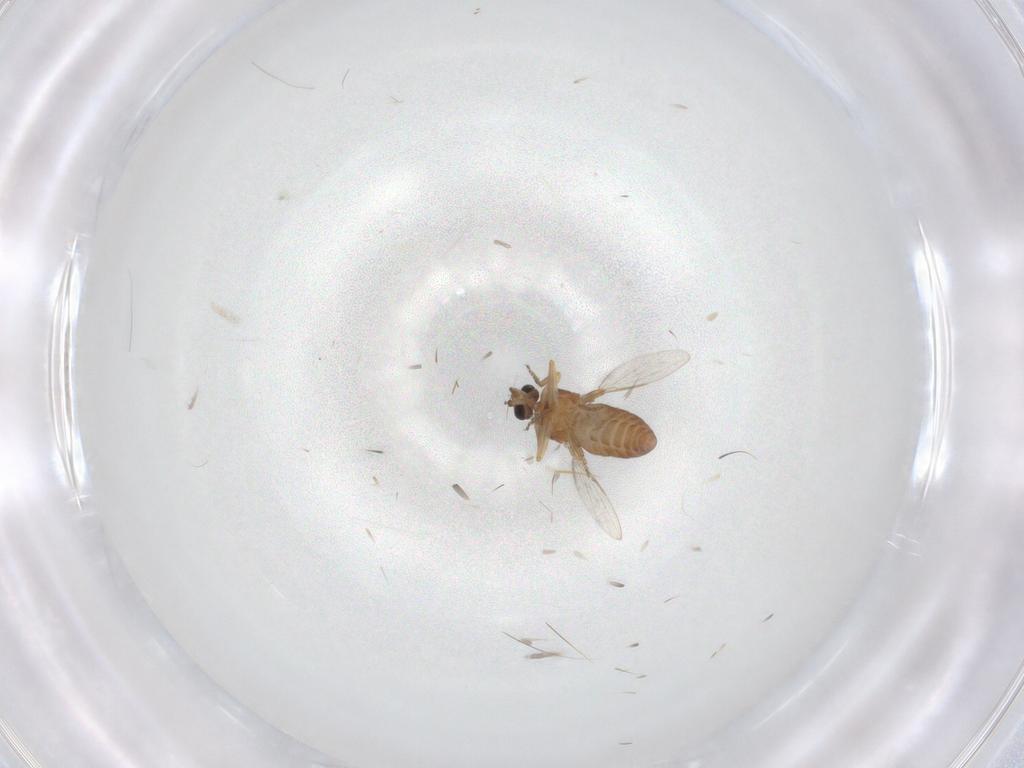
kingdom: Animalia
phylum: Arthropoda
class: Insecta
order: Diptera
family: Ceratopogonidae
